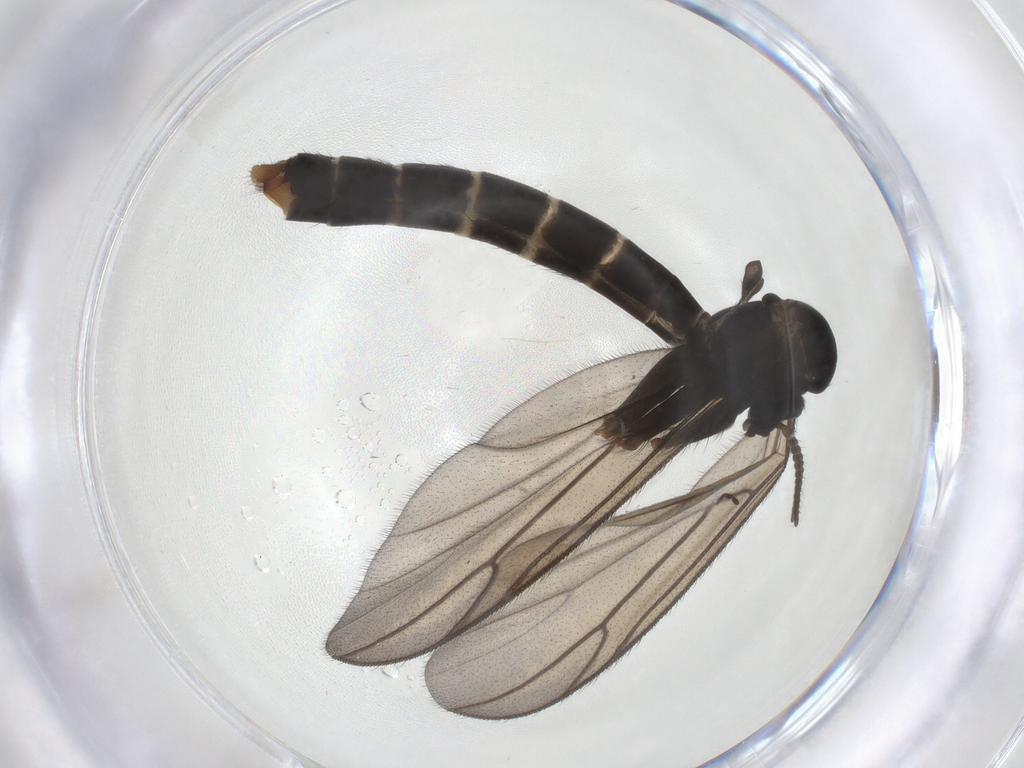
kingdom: Animalia
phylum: Arthropoda
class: Insecta
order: Diptera
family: Ditomyiidae
